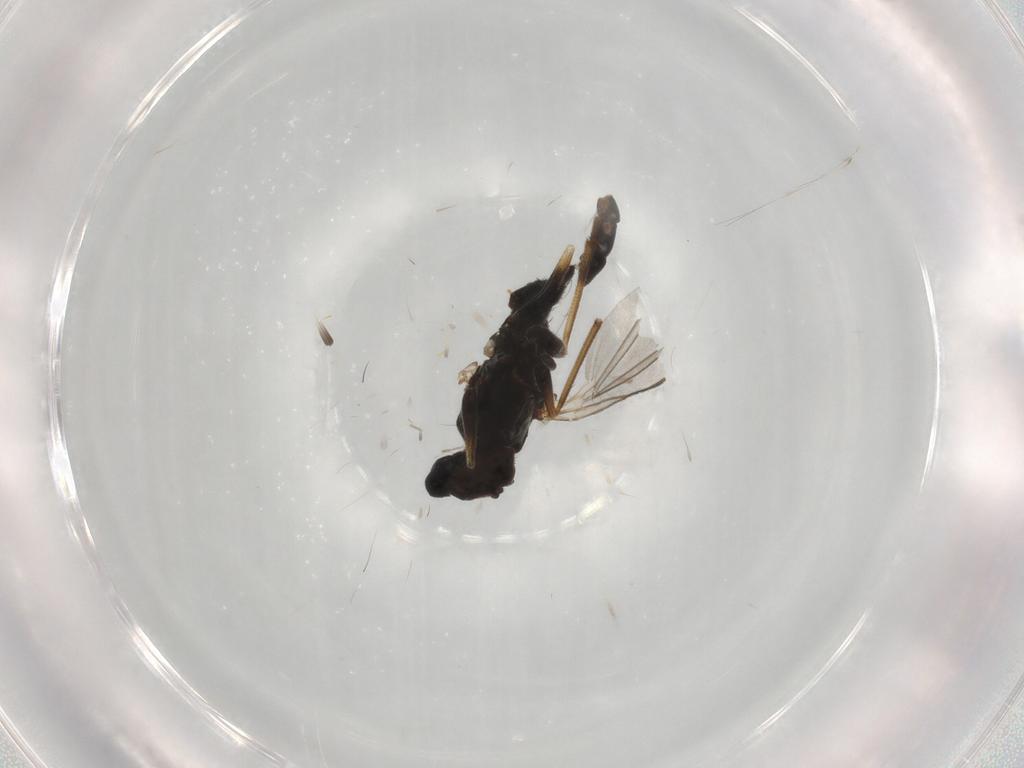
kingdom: Animalia
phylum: Arthropoda
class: Insecta
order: Diptera
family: Dolichopodidae
